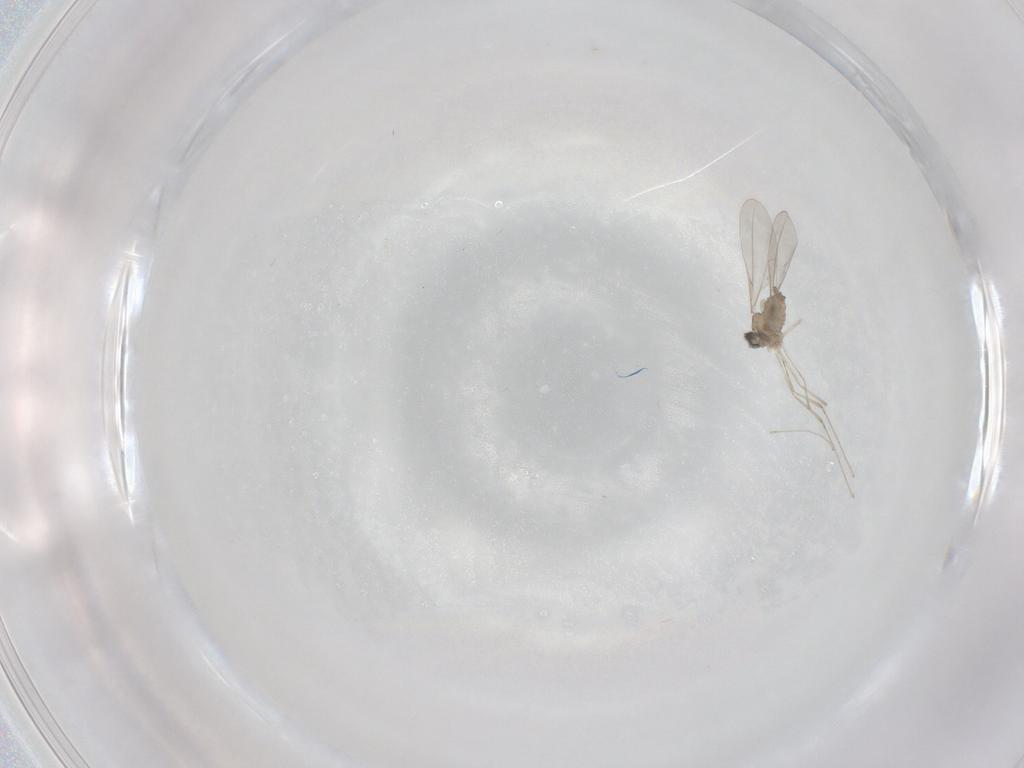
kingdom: Animalia
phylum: Arthropoda
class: Insecta
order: Diptera
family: Cecidomyiidae
